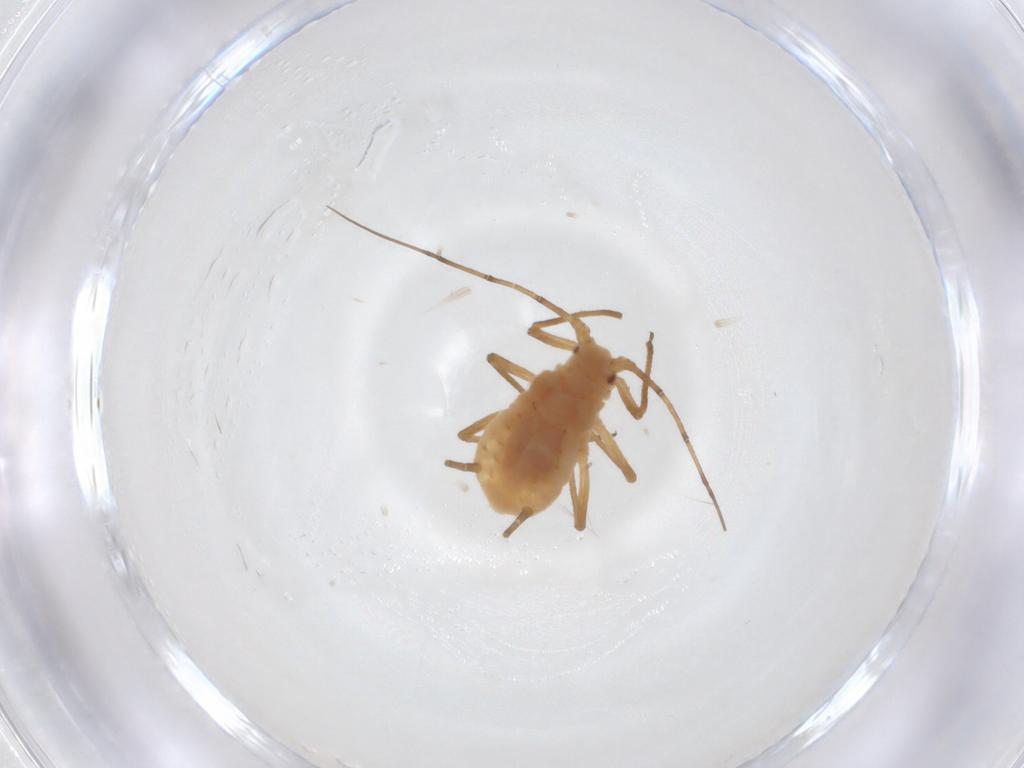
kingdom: Animalia
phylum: Arthropoda
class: Insecta
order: Hemiptera
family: Aphididae
